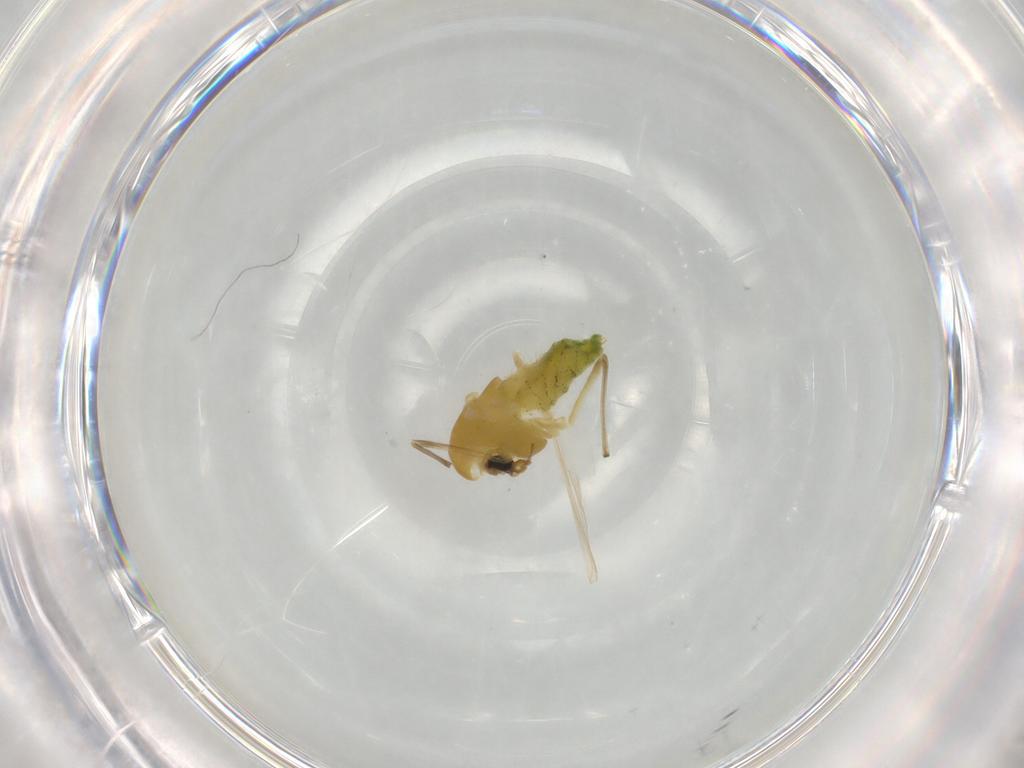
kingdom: Animalia
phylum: Arthropoda
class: Insecta
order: Diptera
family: Chironomidae
